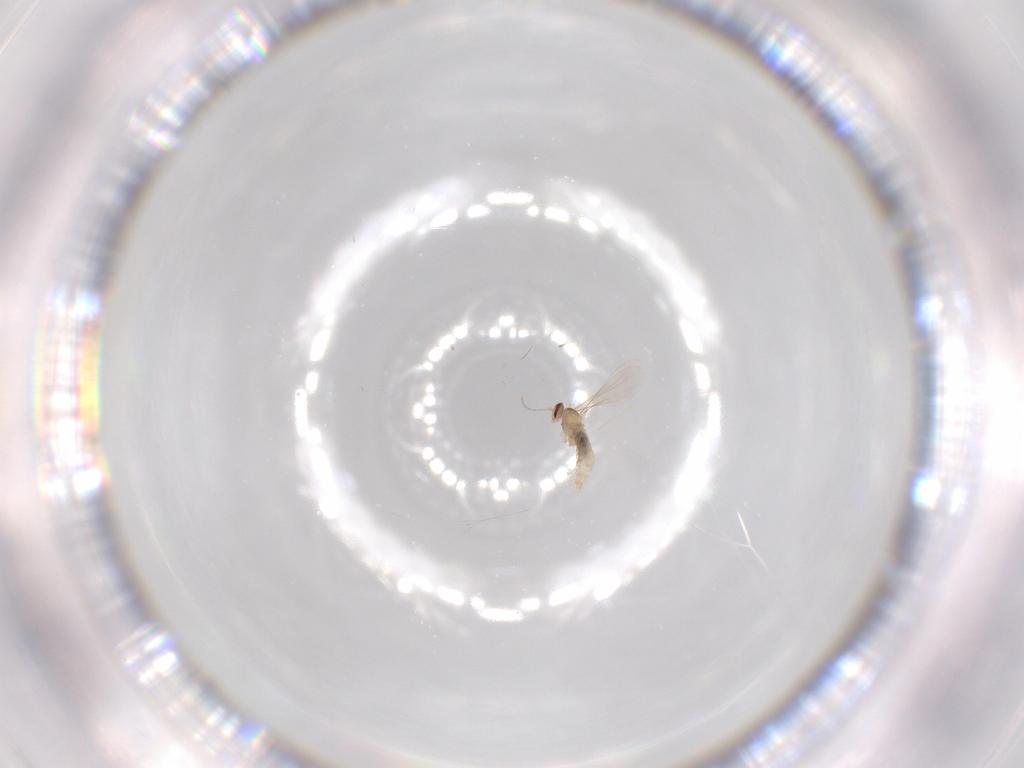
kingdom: Animalia
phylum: Arthropoda
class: Insecta
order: Diptera
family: Cecidomyiidae
